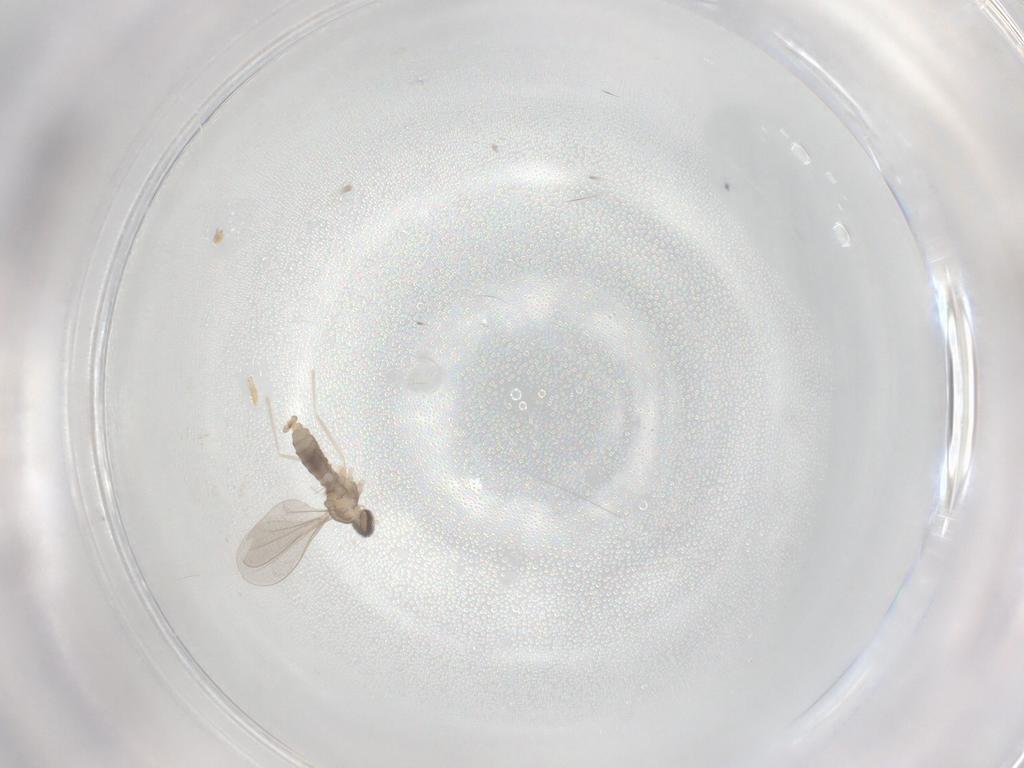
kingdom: Animalia
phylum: Arthropoda
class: Insecta
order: Diptera
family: Cecidomyiidae
